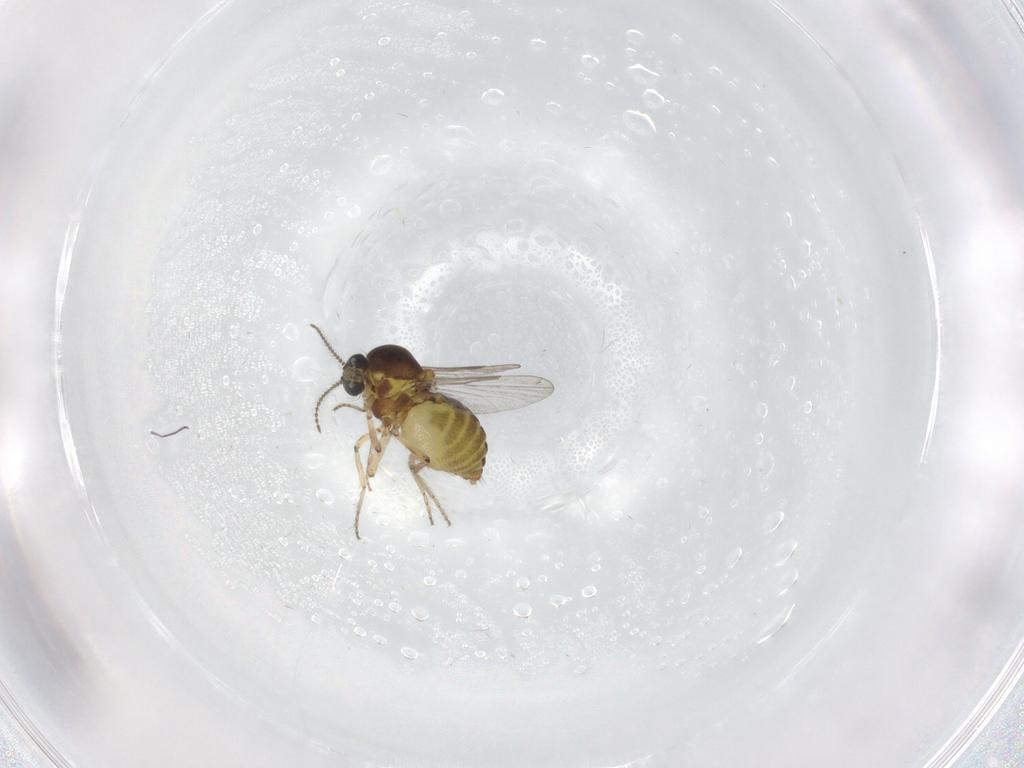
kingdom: Animalia
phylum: Arthropoda
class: Insecta
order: Diptera
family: Ceratopogonidae
